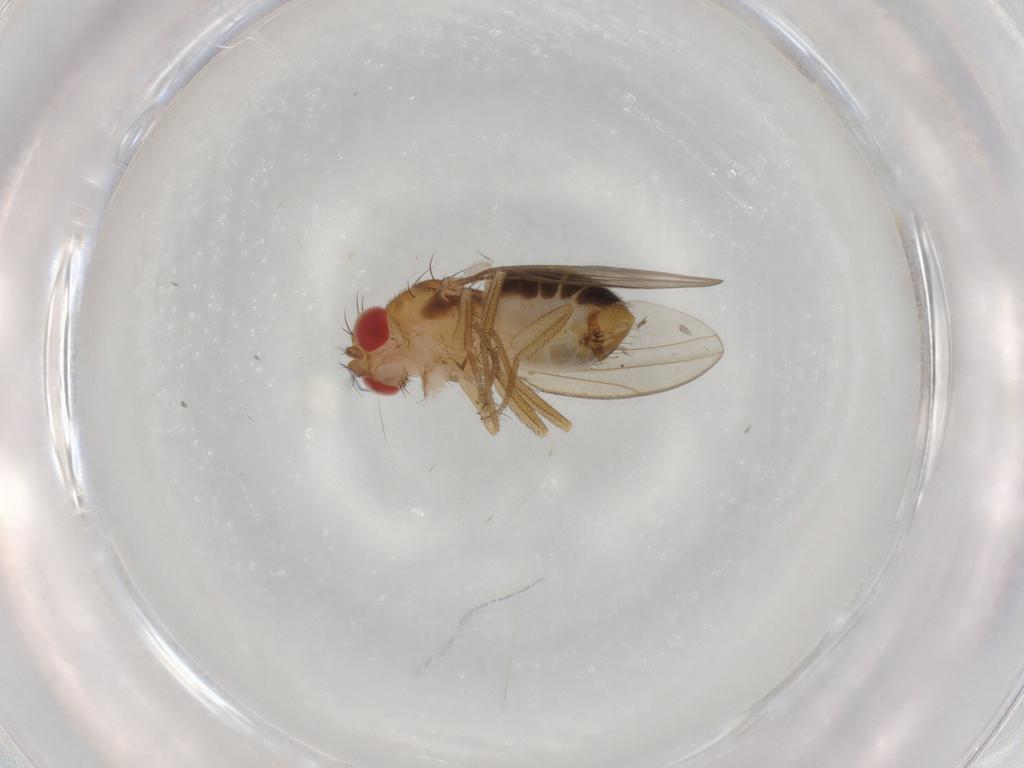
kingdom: Animalia
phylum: Arthropoda
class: Insecta
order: Diptera
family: Drosophilidae
